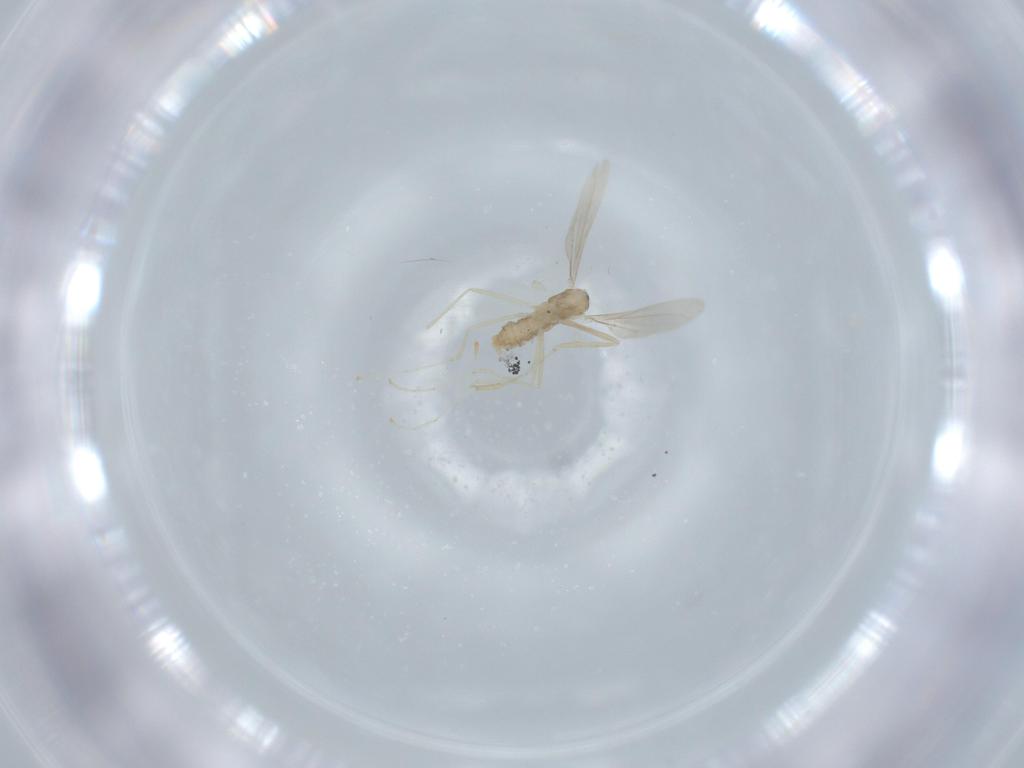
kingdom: Animalia
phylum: Arthropoda
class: Insecta
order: Diptera
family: Cecidomyiidae
